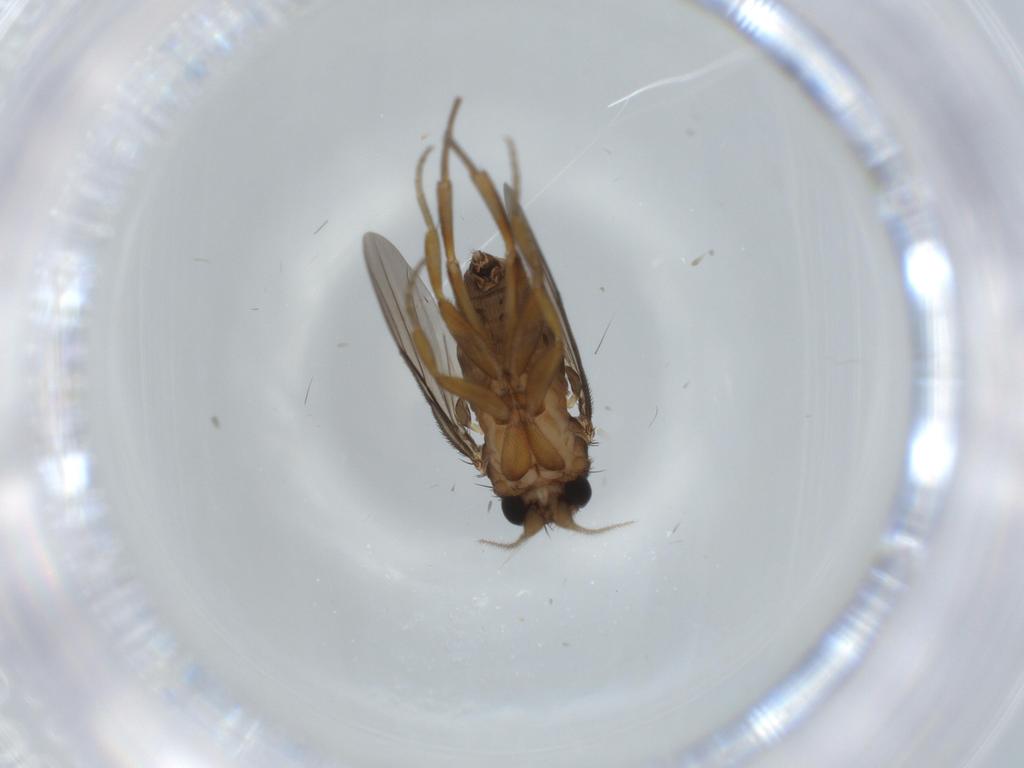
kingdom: Animalia
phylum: Arthropoda
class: Insecta
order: Diptera
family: Phoridae
